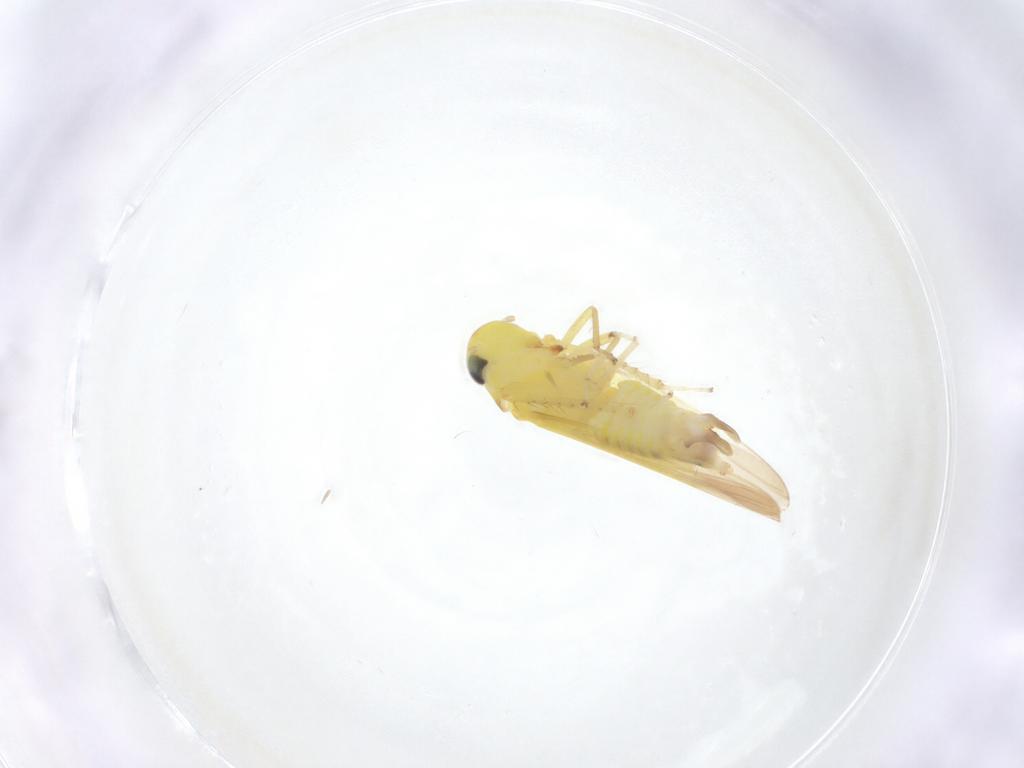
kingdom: Animalia
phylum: Arthropoda
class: Insecta
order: Hemiptera
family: Cicadellidae
